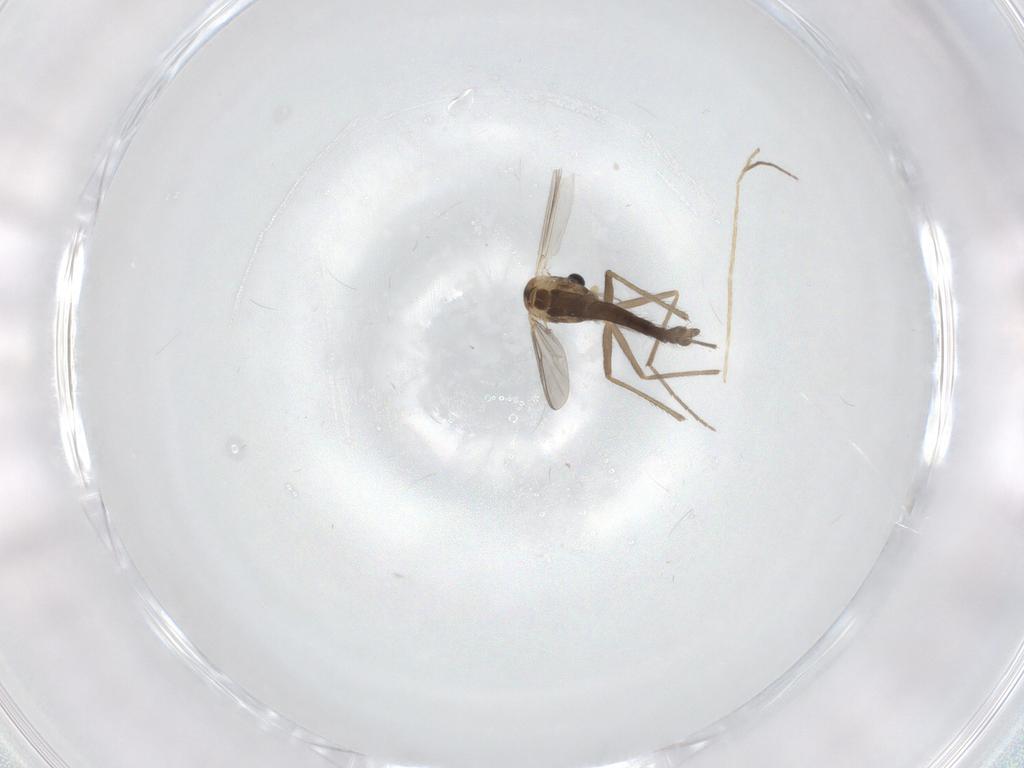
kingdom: Animalia
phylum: Arthropoda
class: Insecta
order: Diptera
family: Chironomidae
